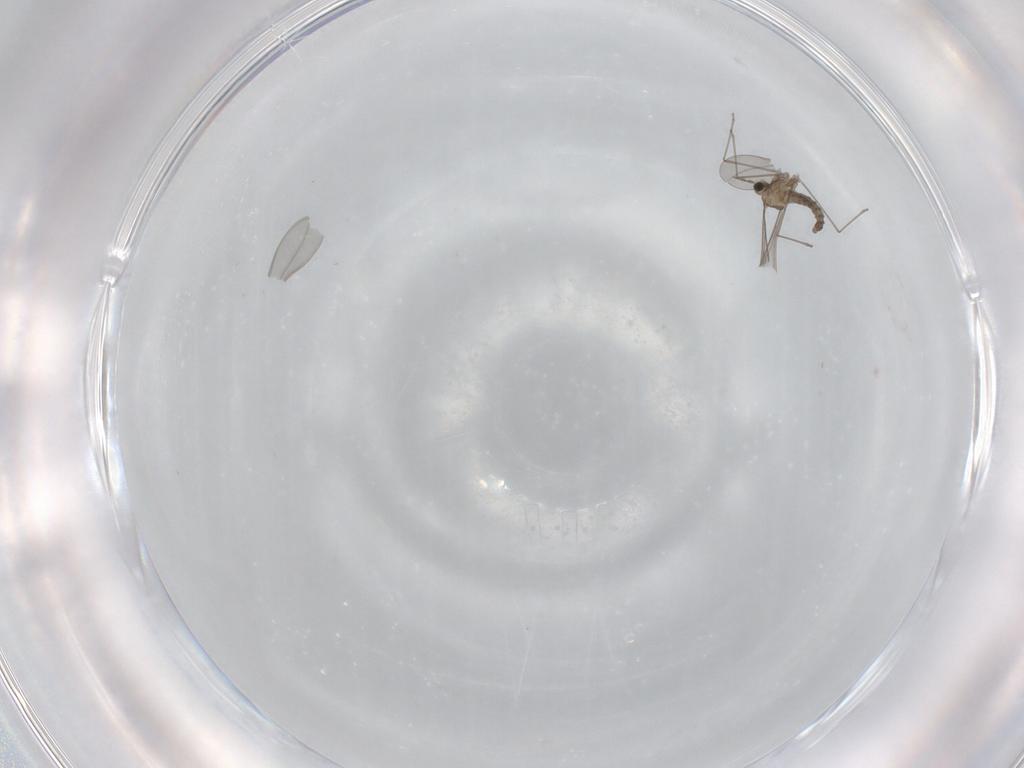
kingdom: Animalia
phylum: Arthropoda
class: Insecta
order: Diptera
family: Cecidomyiidae
